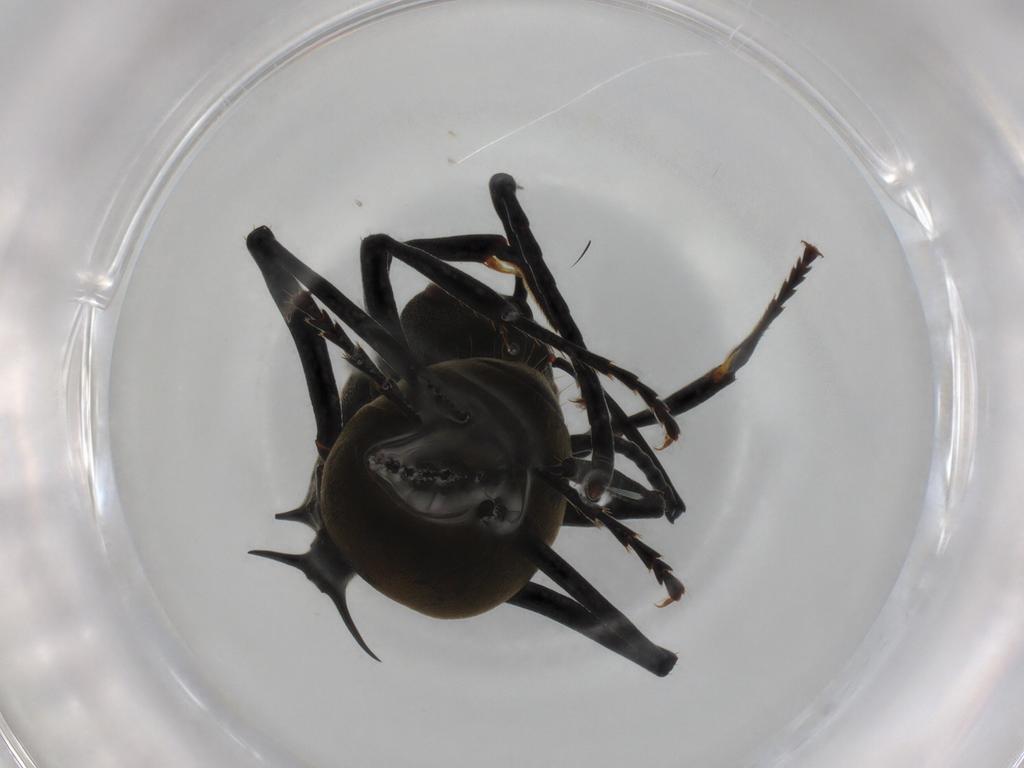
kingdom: Animalia
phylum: Arthropoda
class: Insecta
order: Hymenoptera
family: Formicidae
